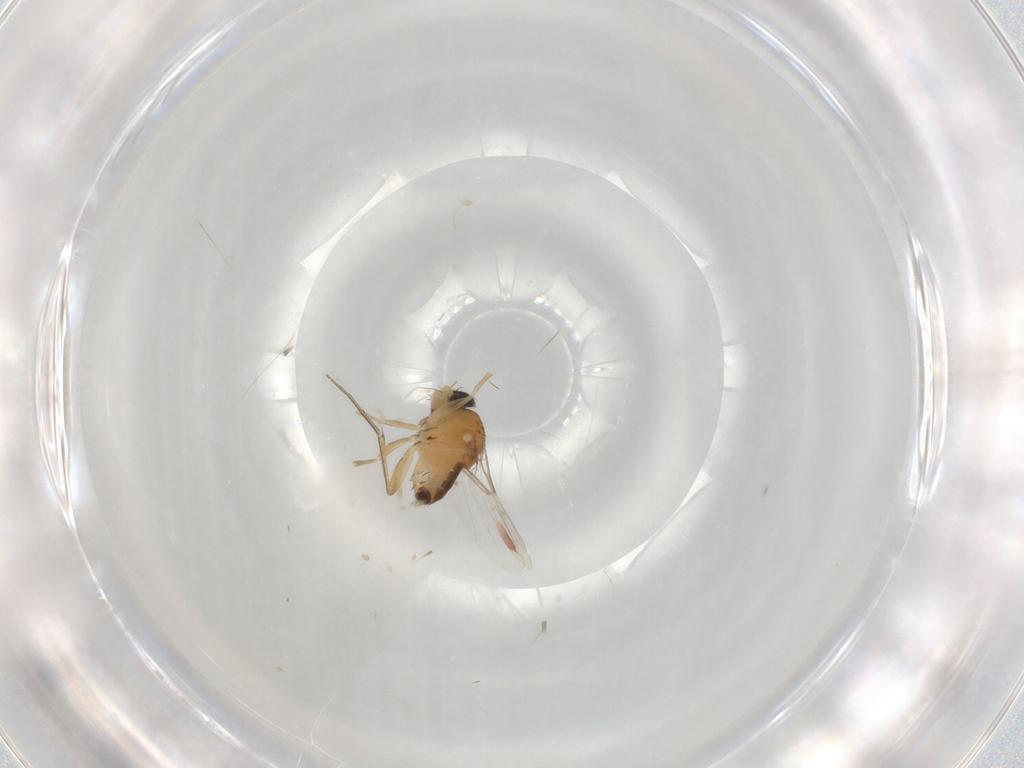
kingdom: Animalia
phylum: Arthropoda
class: Insecta
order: Diptera
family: Phoridae
